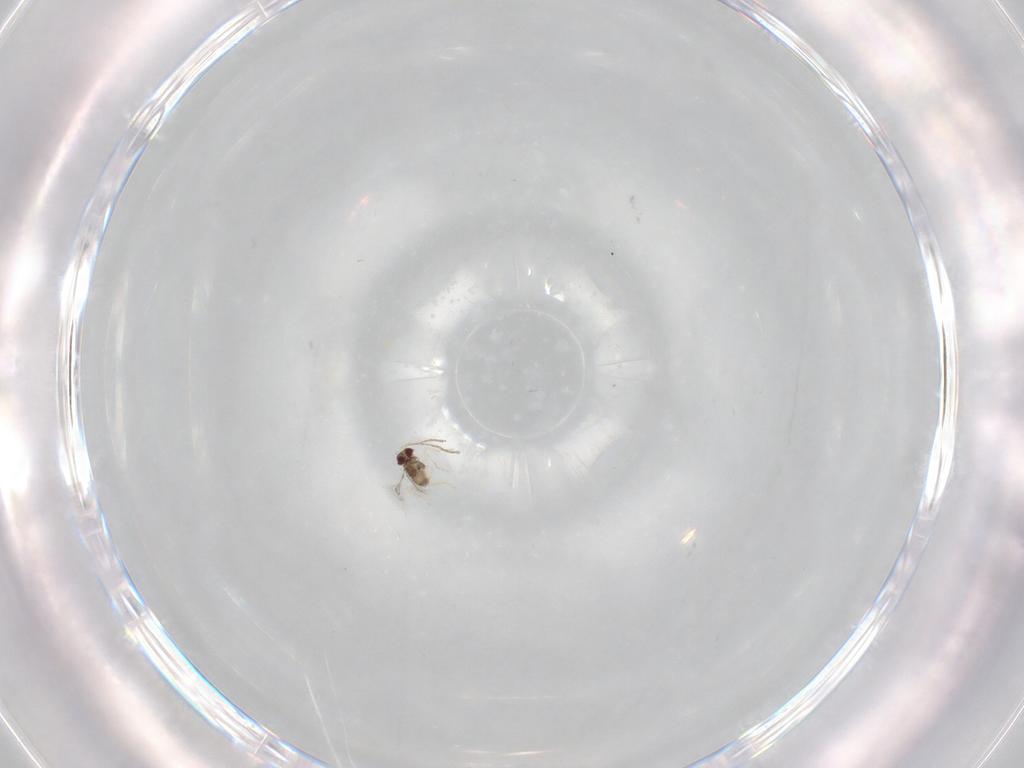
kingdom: Animalia
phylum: Arthropoda
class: Insecta
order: Hymenoptera
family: Diapriidae
